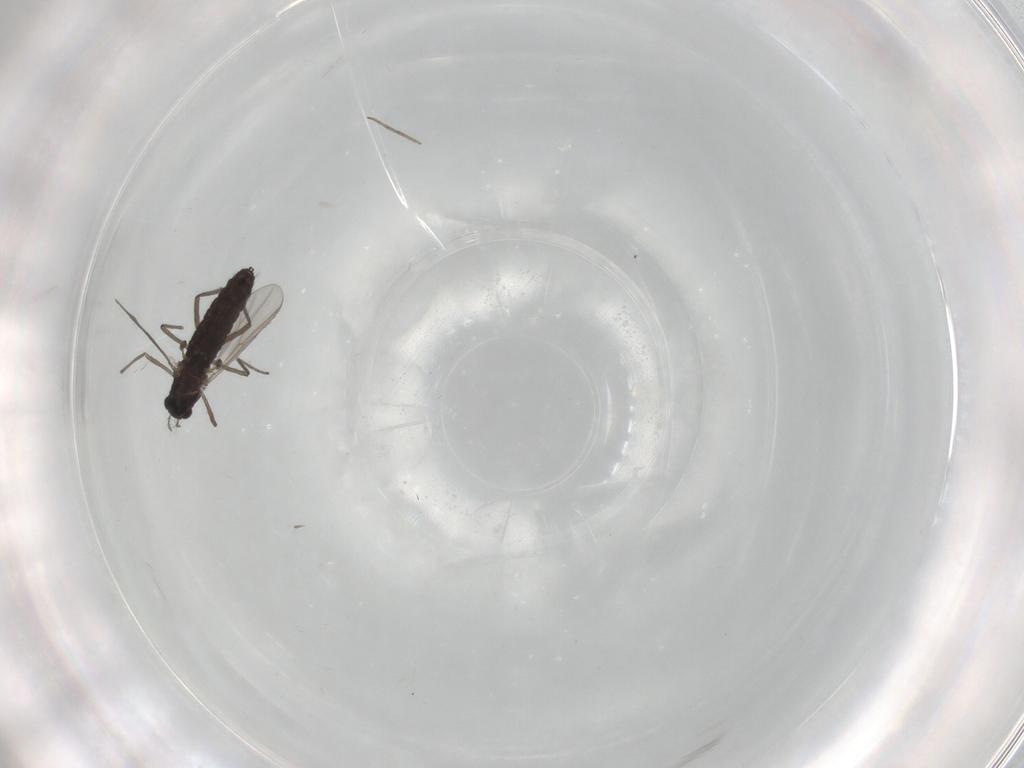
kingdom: Animalia
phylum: Arthropoda
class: Insecta
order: Diptera
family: Chironomidae
